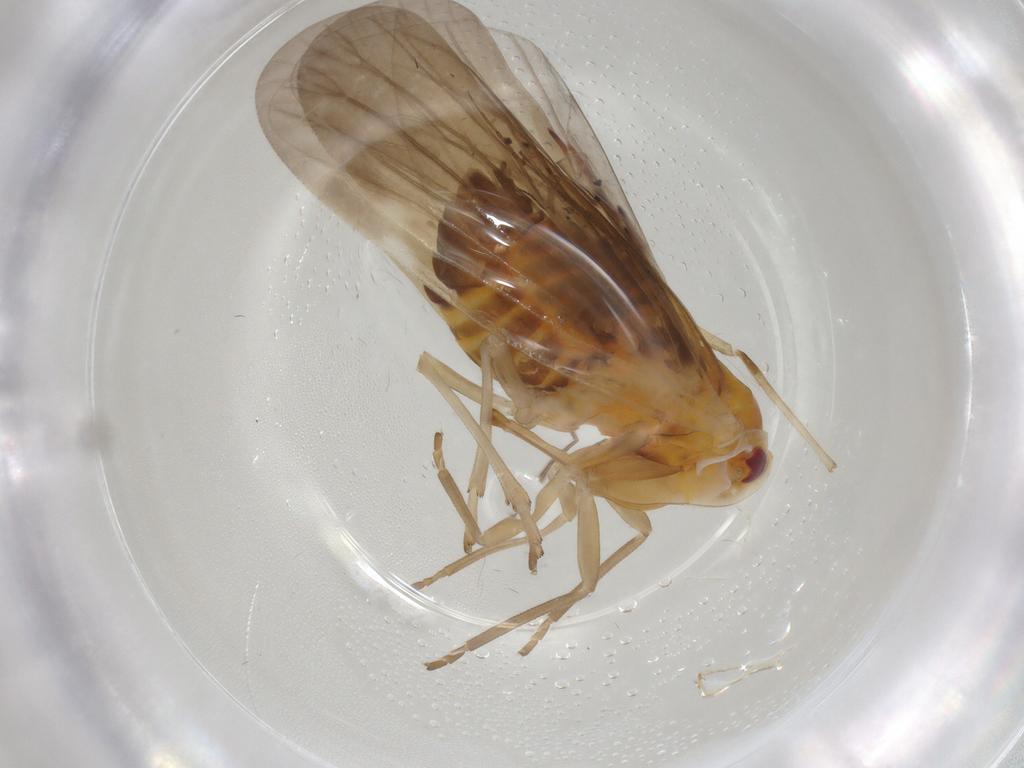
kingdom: Animalia
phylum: Arthropoda
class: Insecta
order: Hemiptera
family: Derbidae
